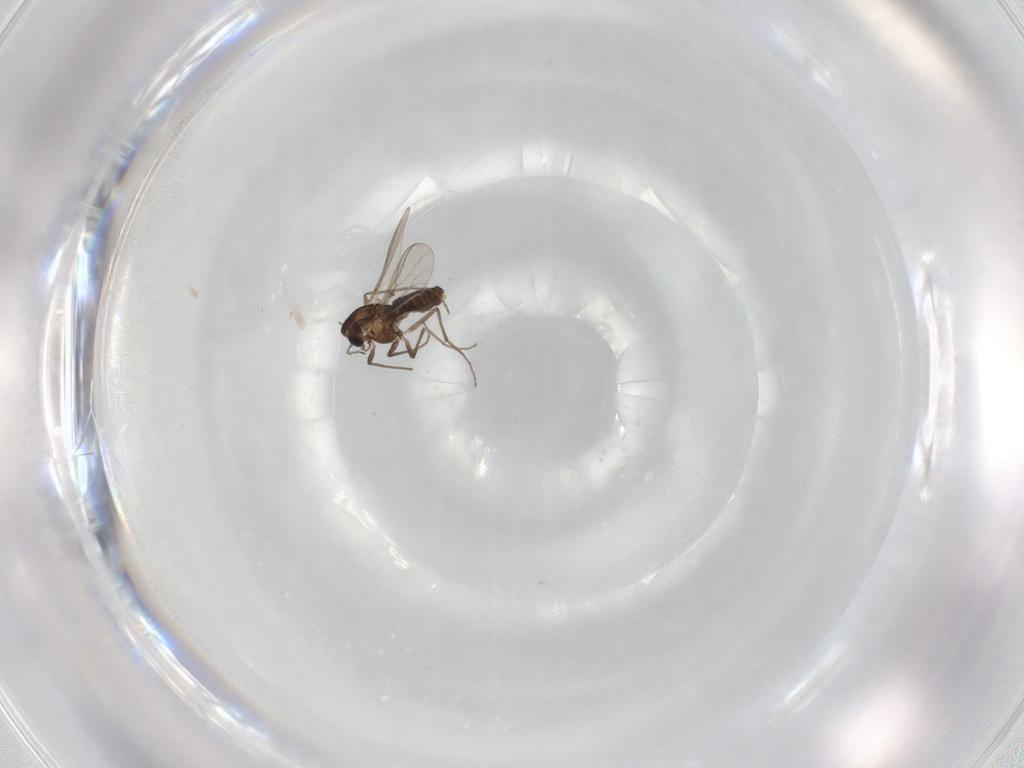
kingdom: Animalia
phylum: Arthropoda
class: Insecta
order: Diptera
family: Chironomidae
